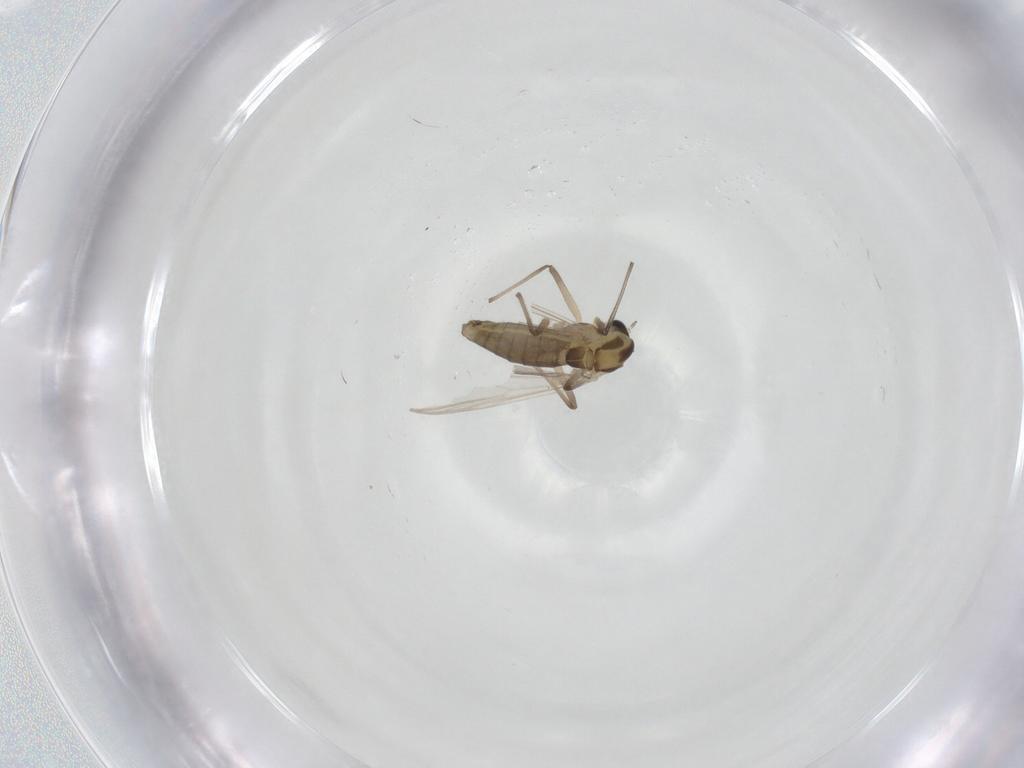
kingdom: Animalia
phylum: Arthropoda
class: Insecta
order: Diptera
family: Chironomidae
